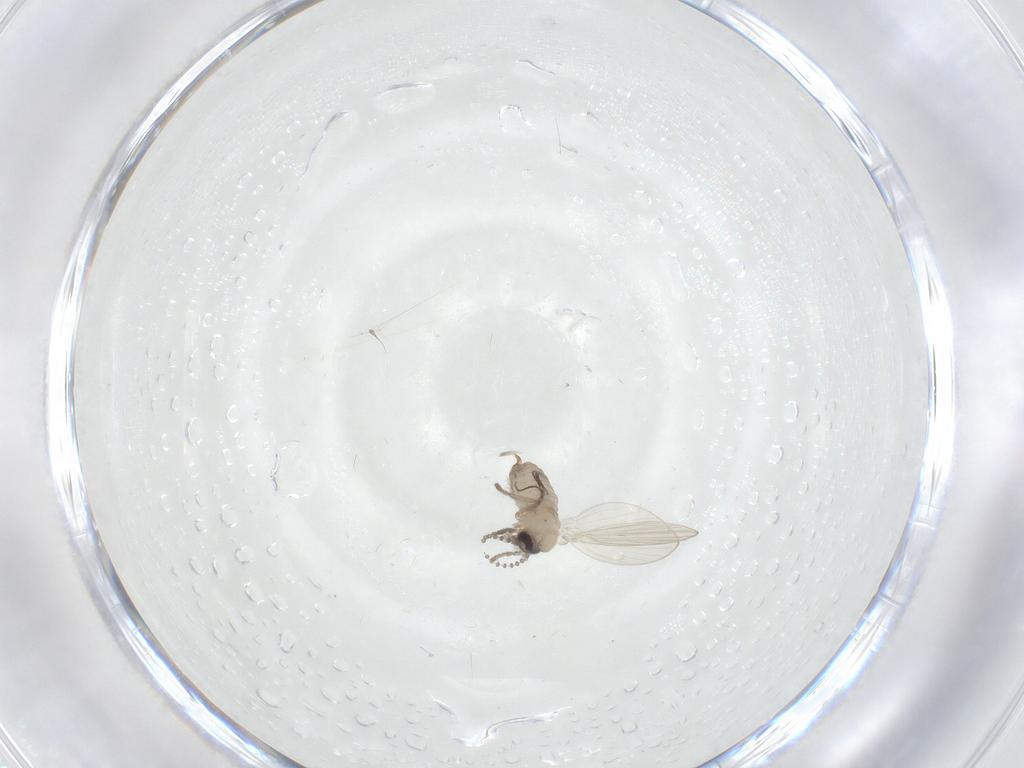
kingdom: Animalia
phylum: Arthropoda
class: Insecta
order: Diptera
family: Psychodidae
